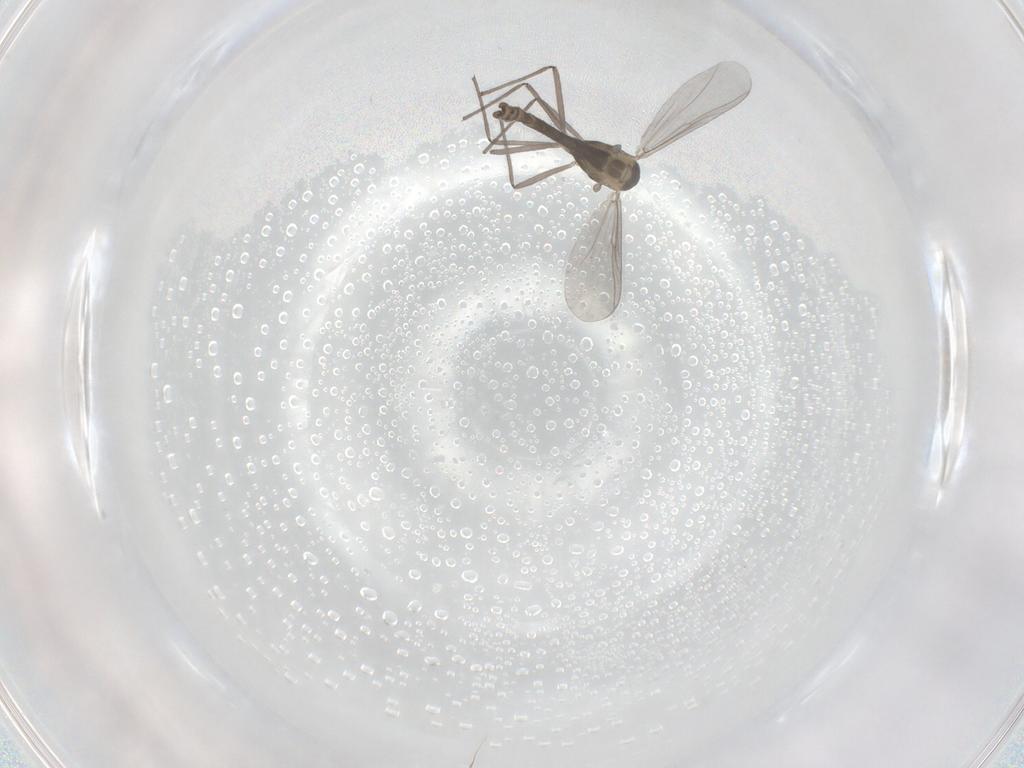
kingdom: Animalia
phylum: Arthropoda
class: Insecta
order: Diptera
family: Chironomidae
